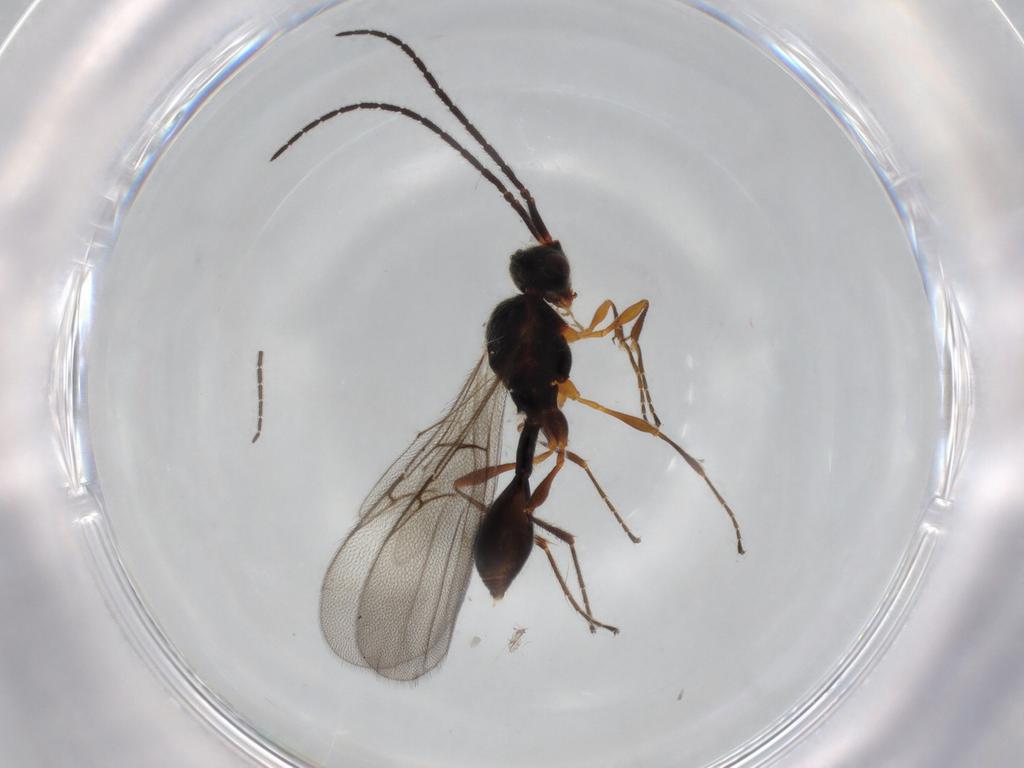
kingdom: Animalia
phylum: Arthropoda
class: Insecta
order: Hymenoptera
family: Diapriidae
